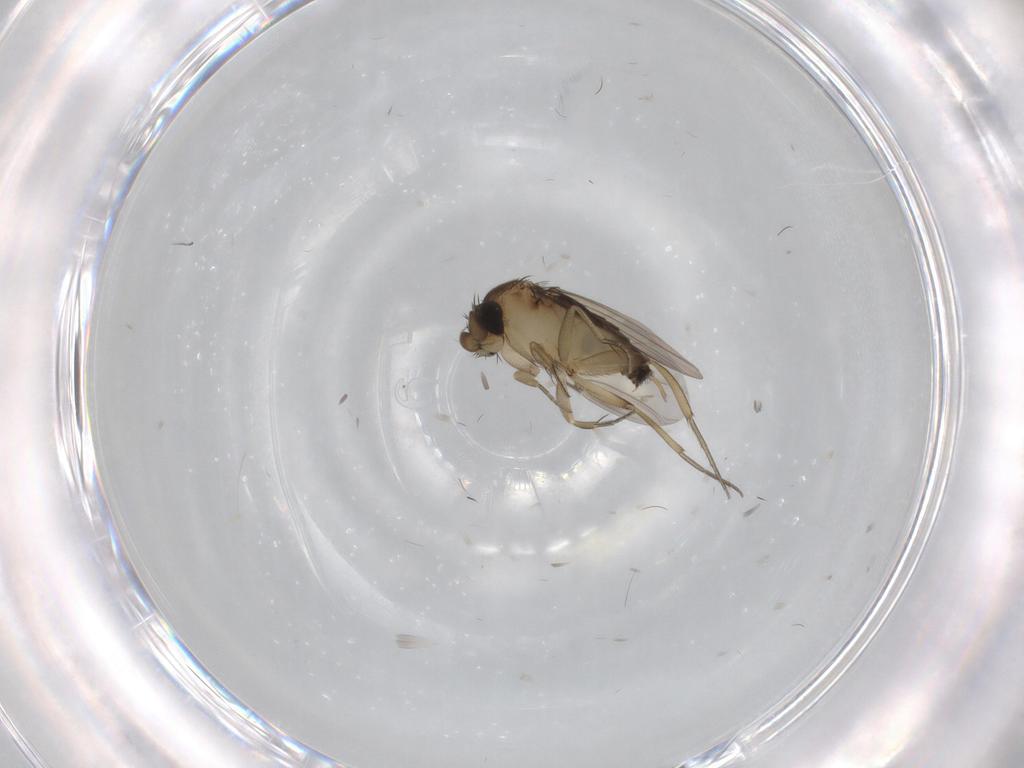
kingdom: Animalia
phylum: Arthropoda
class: Insecta
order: Diptera
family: Phoridae
